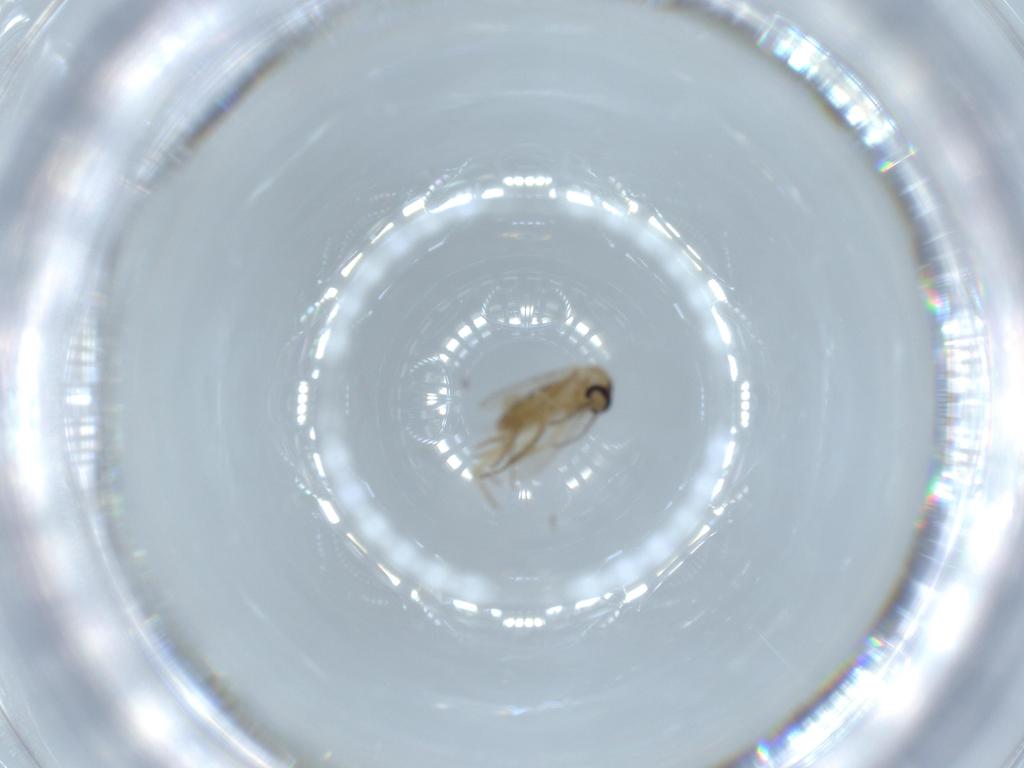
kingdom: Animalia
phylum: Arthropoda
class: Insecta
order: Diptera
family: Ceratopogonidae
